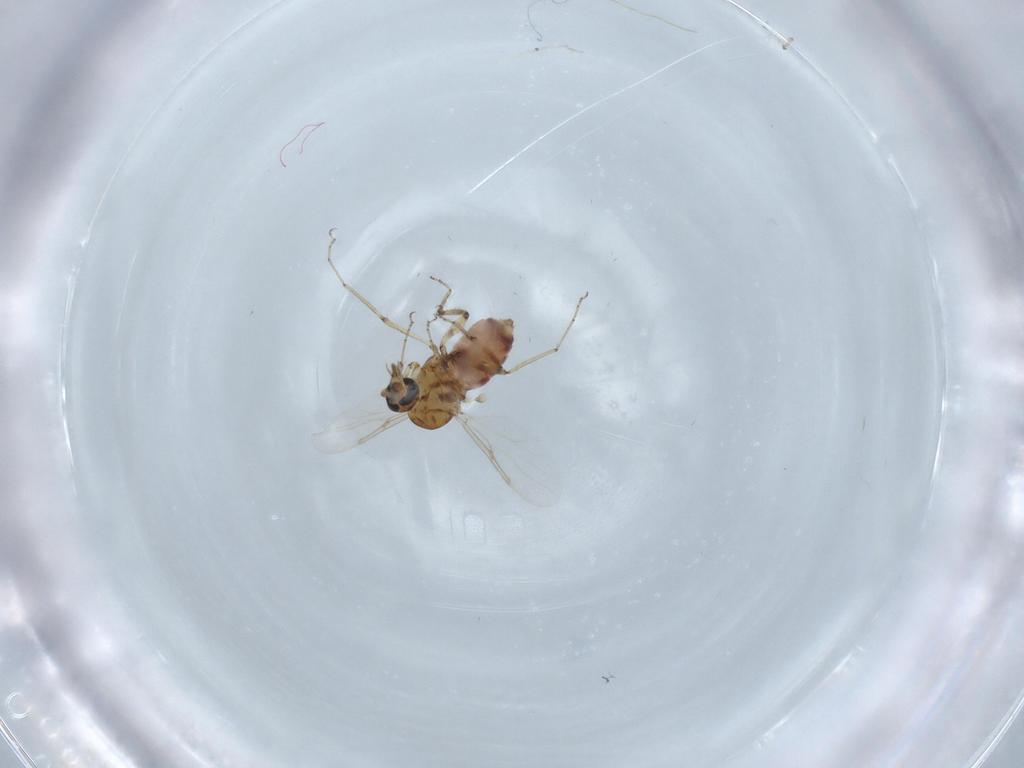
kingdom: Animalia
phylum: Arthropoda
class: Insecta
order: Diptera
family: Ceratopogonidae
